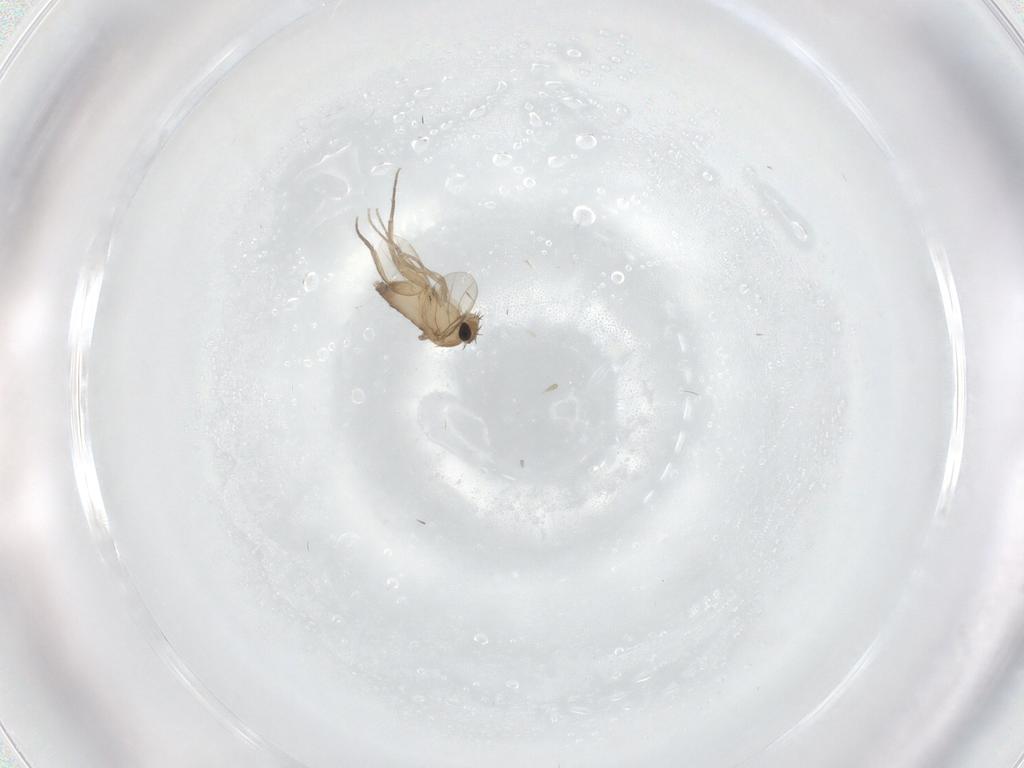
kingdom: Animalia
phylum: Arthropoda
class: Insecta
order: Diptera
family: Phoridae
